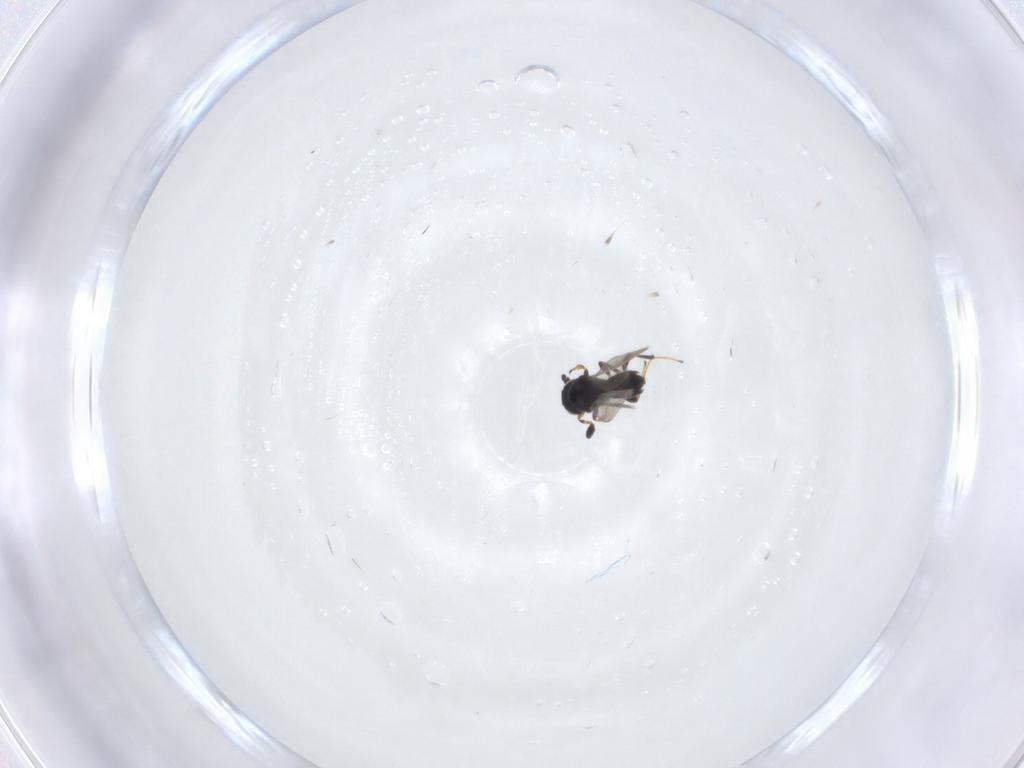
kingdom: Animalia
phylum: Arthropoda
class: Insecta
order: Hymenoptera
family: Platygastridae
